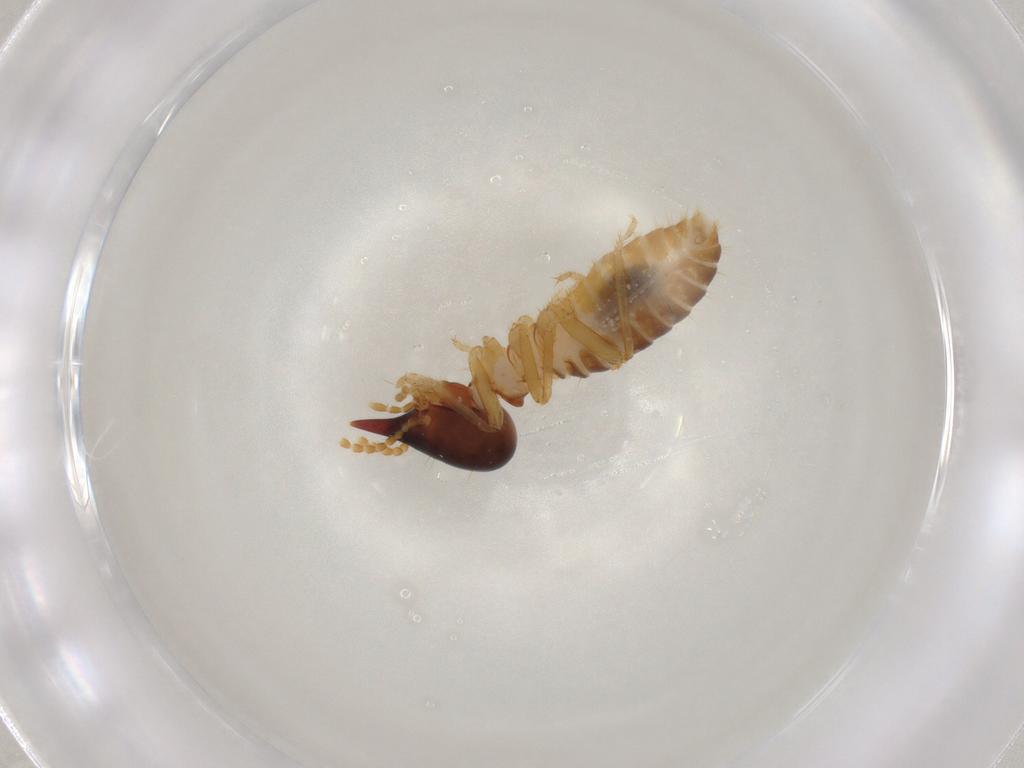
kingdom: Animalia
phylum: Arthropoda
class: Insecta
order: Blattodea
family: Termitidae
